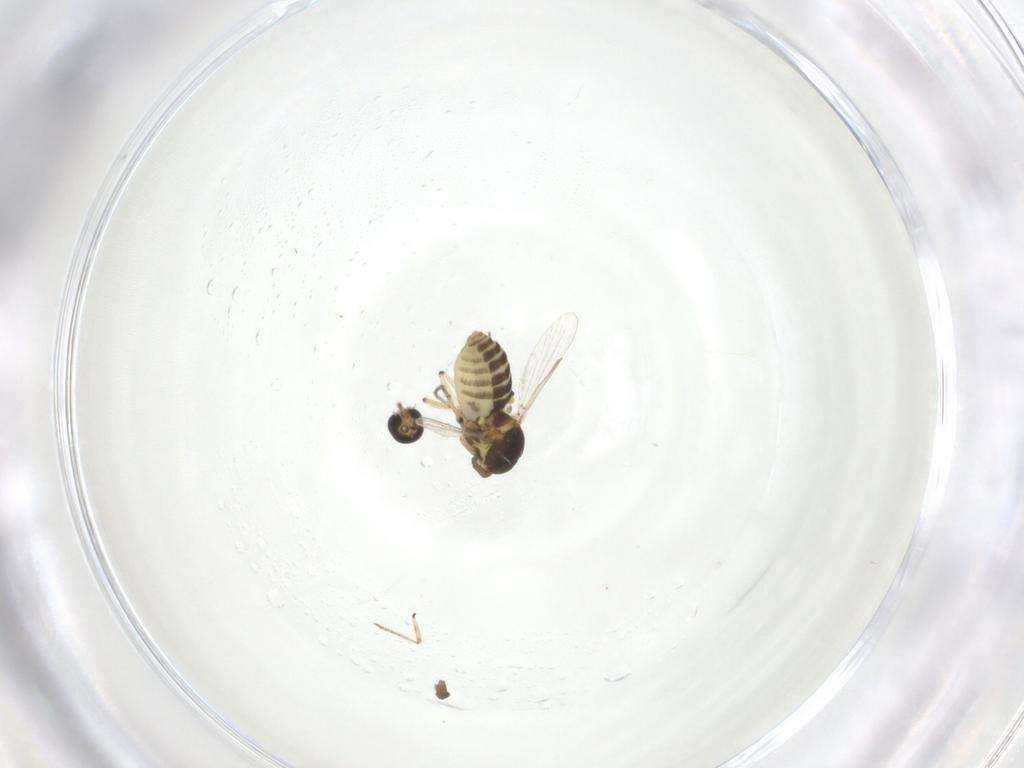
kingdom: Animalia
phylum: Arthropoda
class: Insecta
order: Diptera
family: Ceratopogonidae
